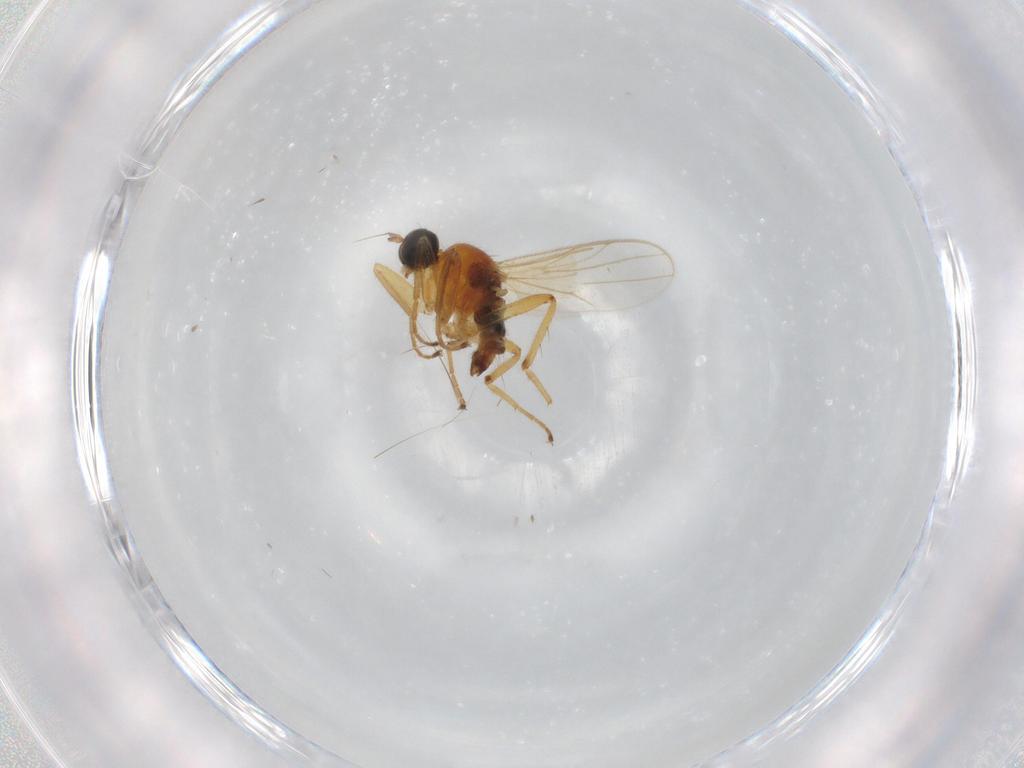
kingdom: Animalia
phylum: Arthropoda
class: Insecta
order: Diptera
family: Hybotidae
